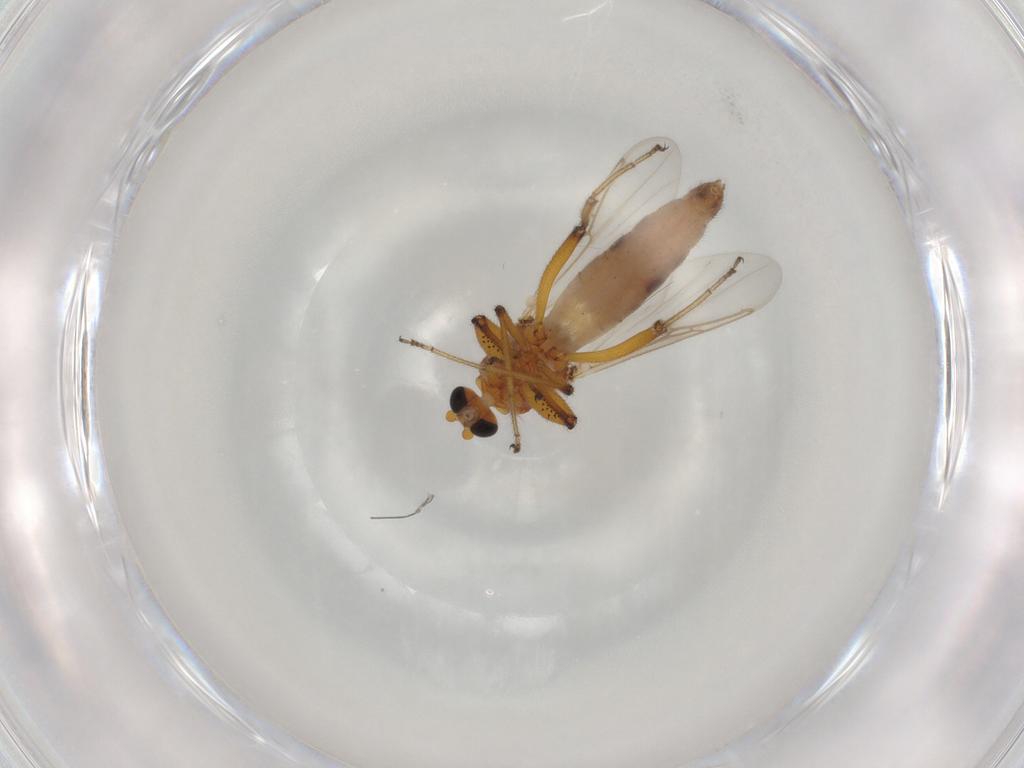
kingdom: Animalia
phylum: Arthropoda
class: Insecta
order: Diptera
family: Ceratopogonidae
